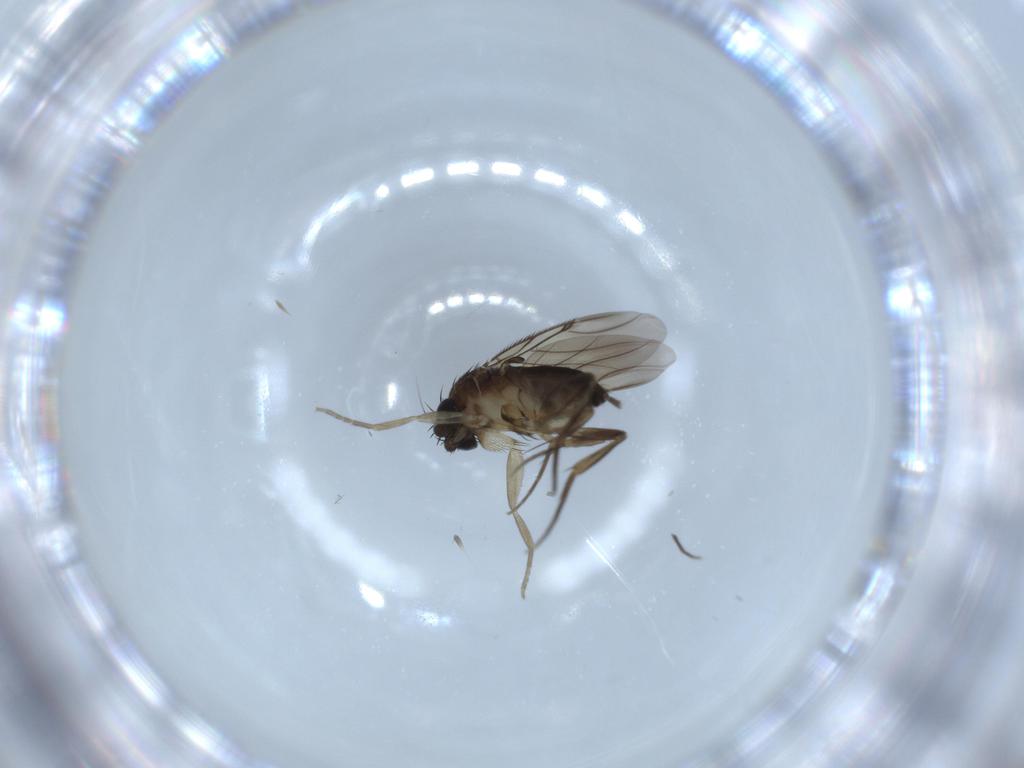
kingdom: Animalia
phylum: Arthropoda
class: Insecta
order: Diptera
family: Phoridae
